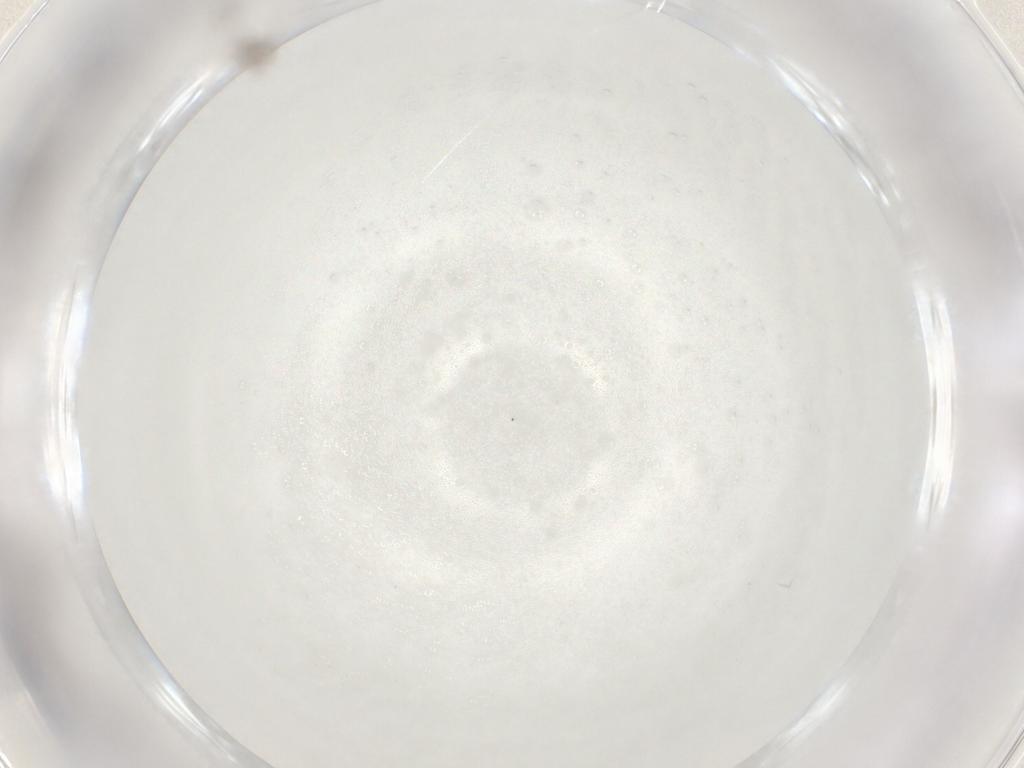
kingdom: Animalia
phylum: Arthropoda
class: Insecta
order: Diptera
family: Cecidomyiidae
